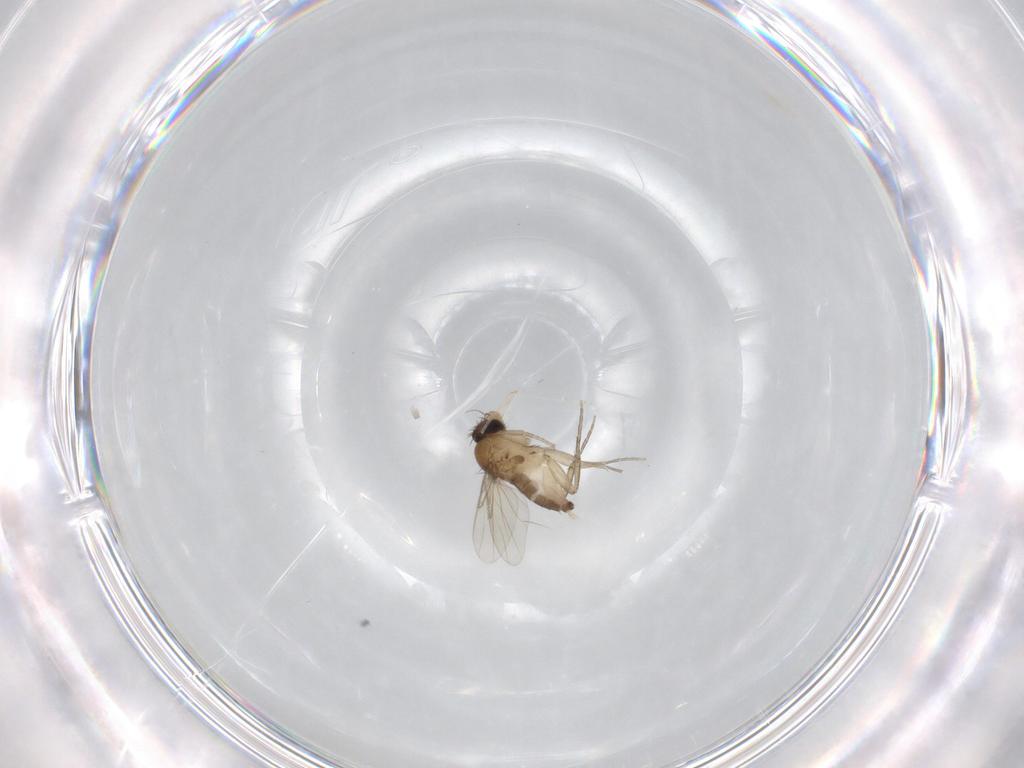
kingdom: Animalia
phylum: Arthropoda
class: Insecta
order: Diptera
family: Phoridae
